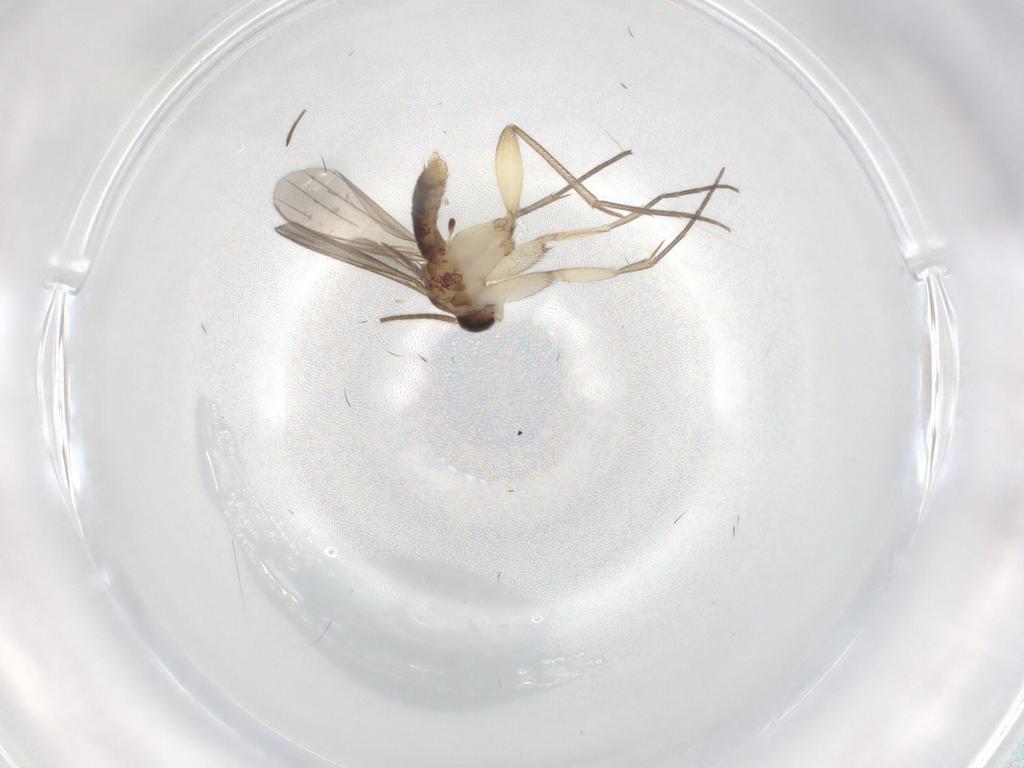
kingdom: Animalia
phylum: Arthropoda
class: Insecta
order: Diptera
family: Mycetophilidae
